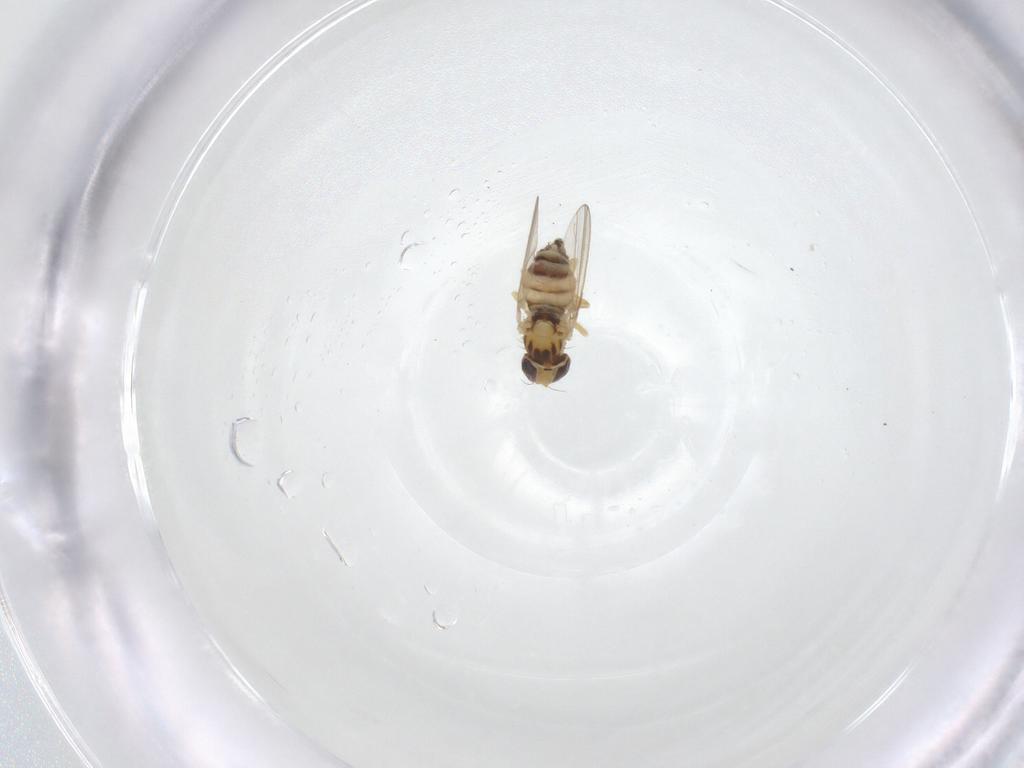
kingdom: Animalia
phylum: Arthropoda
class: Insecta
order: Diptera
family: Chyromyidae
